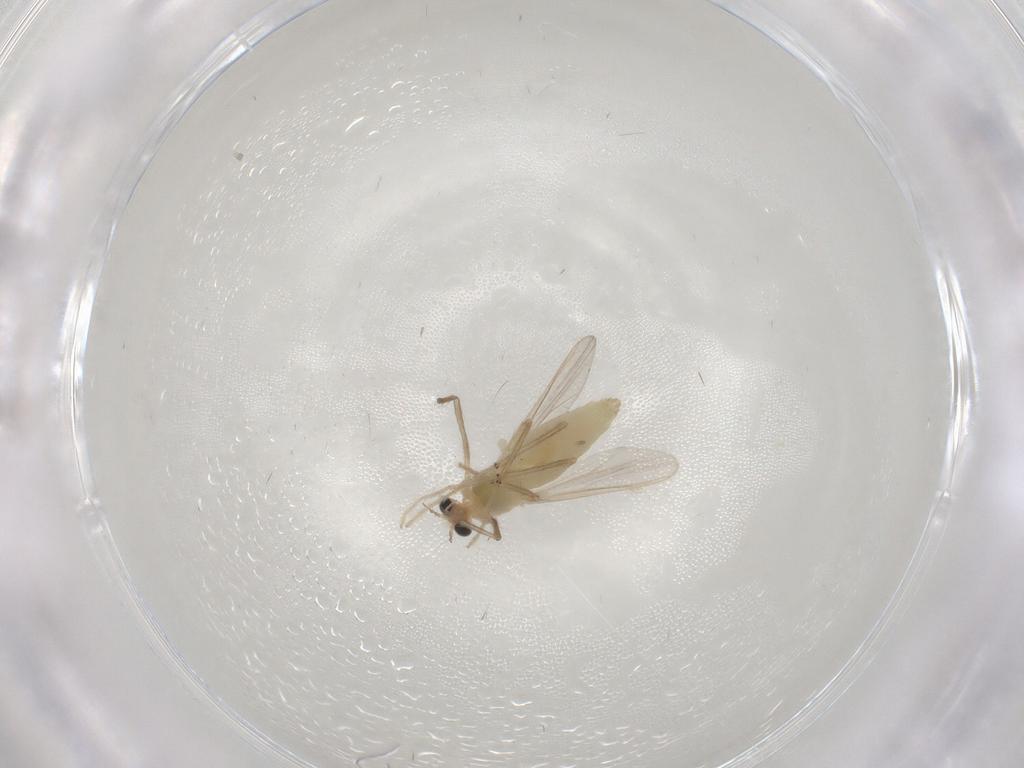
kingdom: Animalia
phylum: Arthropoda
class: Insecta
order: Diptera
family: Chironomidae
